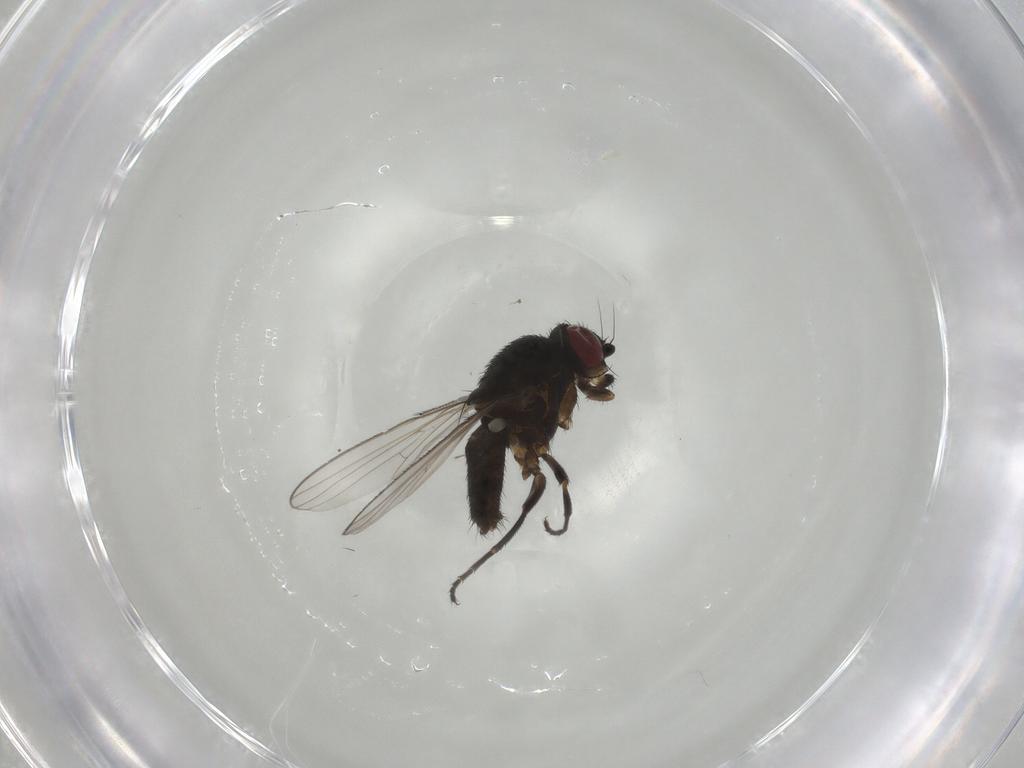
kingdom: Animalia
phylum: Arthropoda
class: Insecta
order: Diptera
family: Milichiidae
